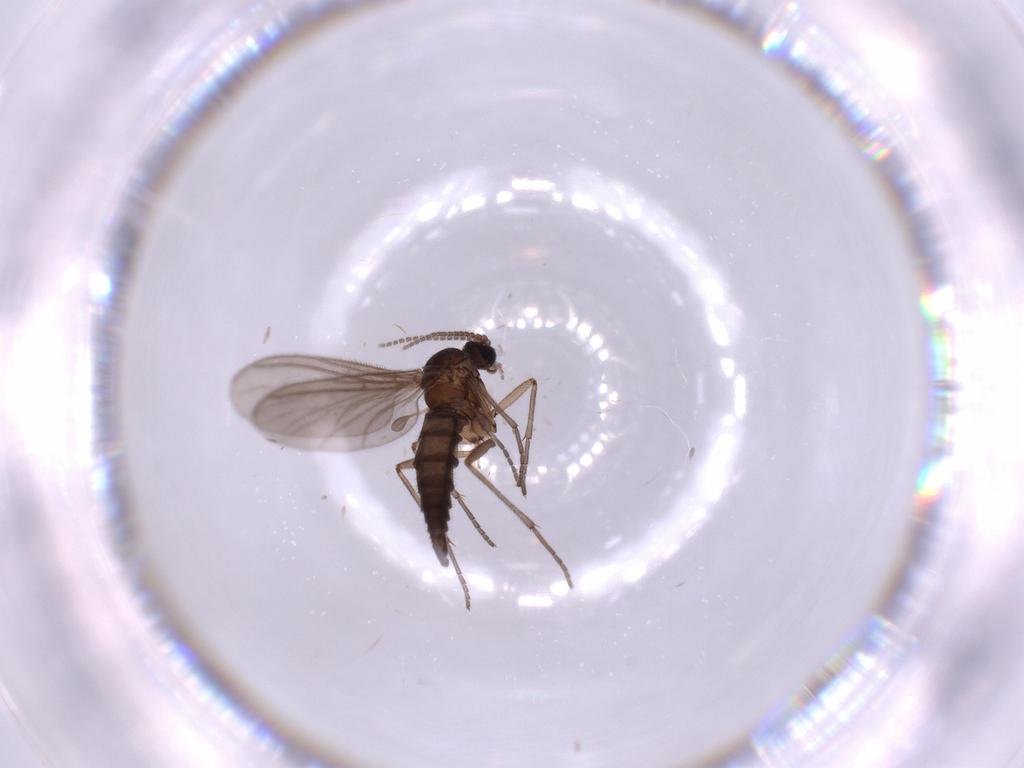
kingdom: Animalia
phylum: Arthropoda
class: Insecta
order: Diptera
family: Sciaridae
